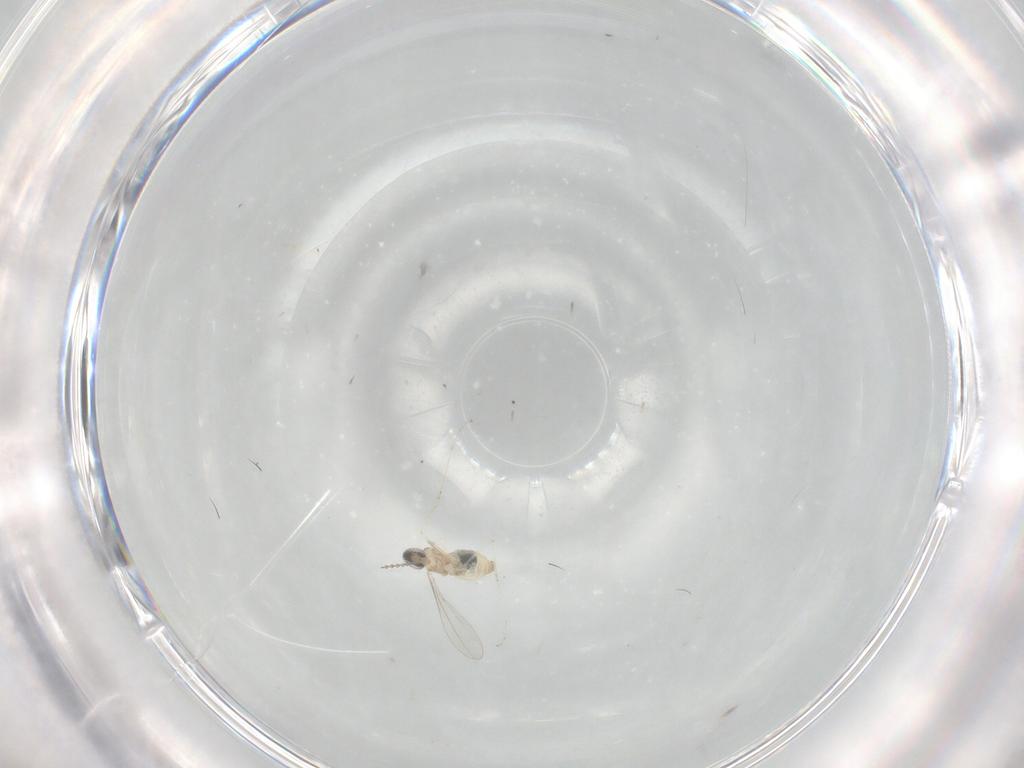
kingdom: Animalia
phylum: Arthropoda
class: Insecta
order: Diptera
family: Cecidomyiidae
